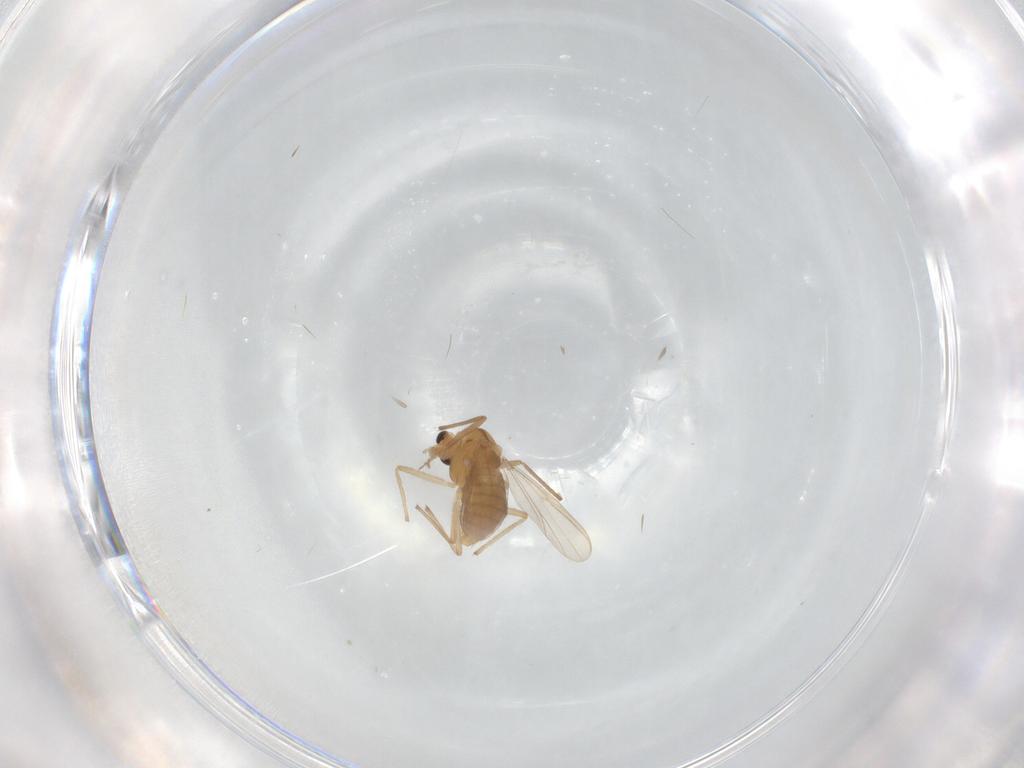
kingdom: Animalia
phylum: Arthropoda
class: Insecta
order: Diptera
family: Chironomidae
